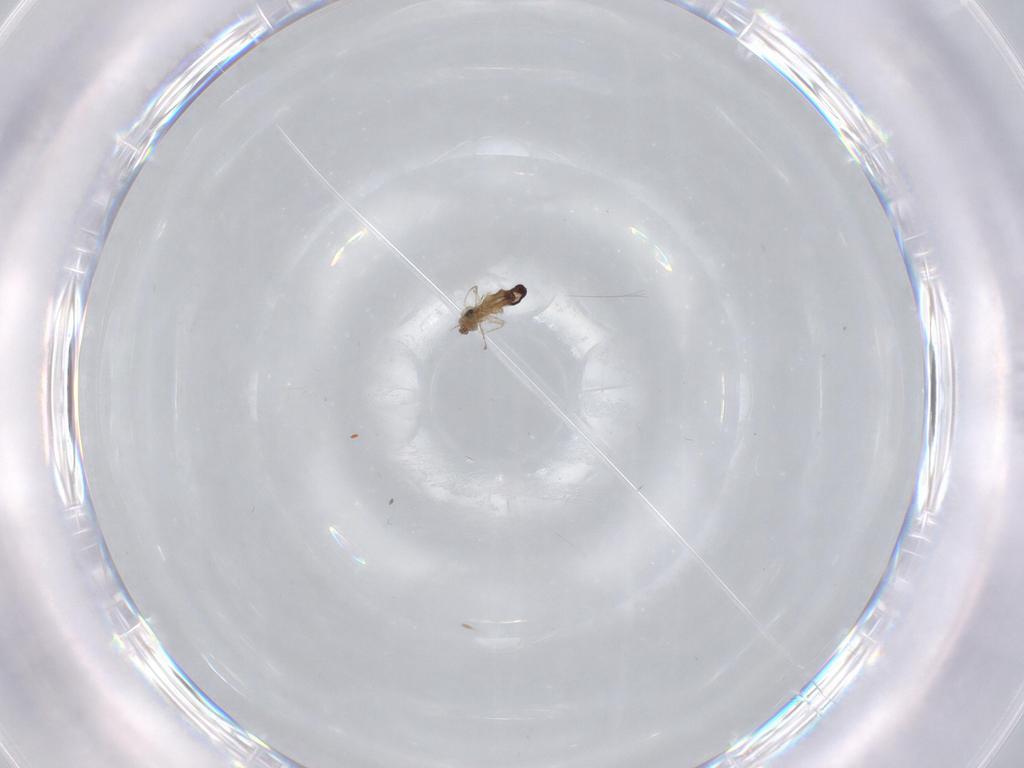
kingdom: Animalia
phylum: Arthropoda
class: Insecta
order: Diptera
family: Cecidomyiidae
